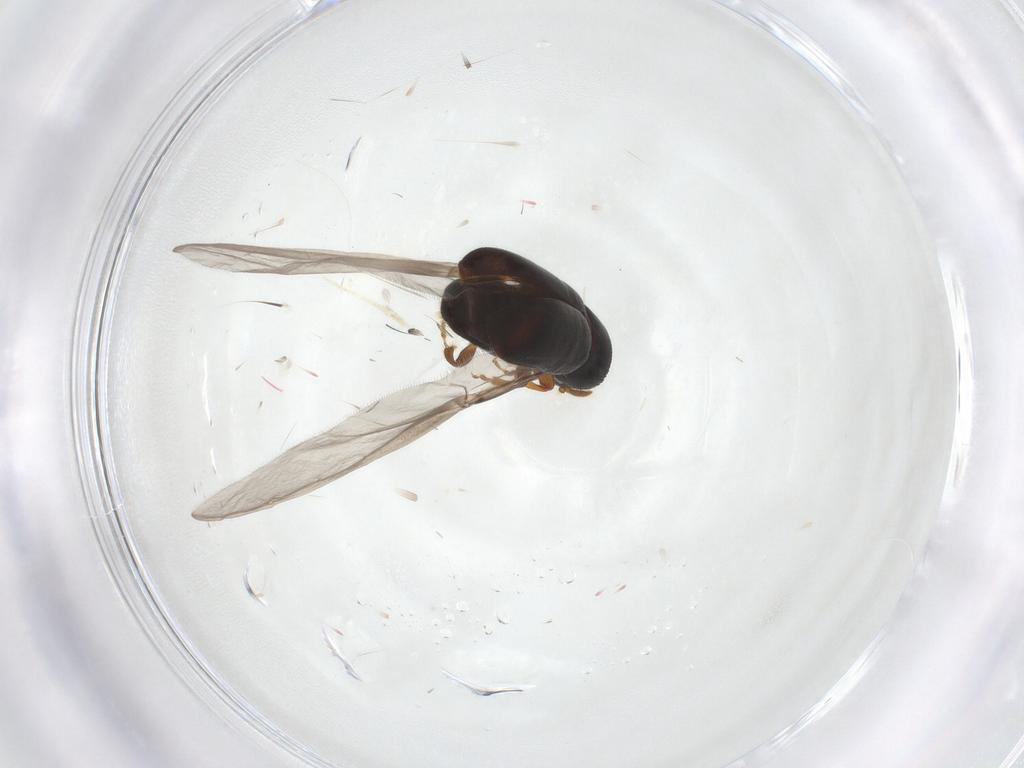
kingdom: Animalia
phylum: Arthropoda
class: Insecta
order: Coleoptera
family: Curculionidae
